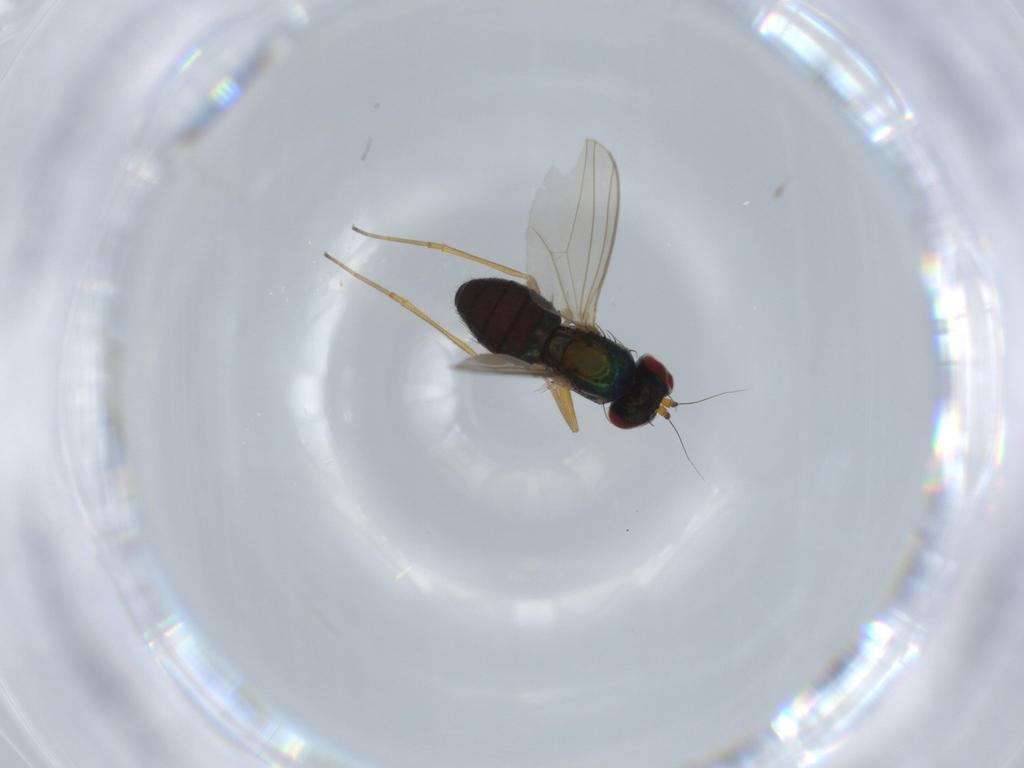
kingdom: Animalia
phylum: Arthropoda
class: Insecta
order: Diptera
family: Dolichopodidae
